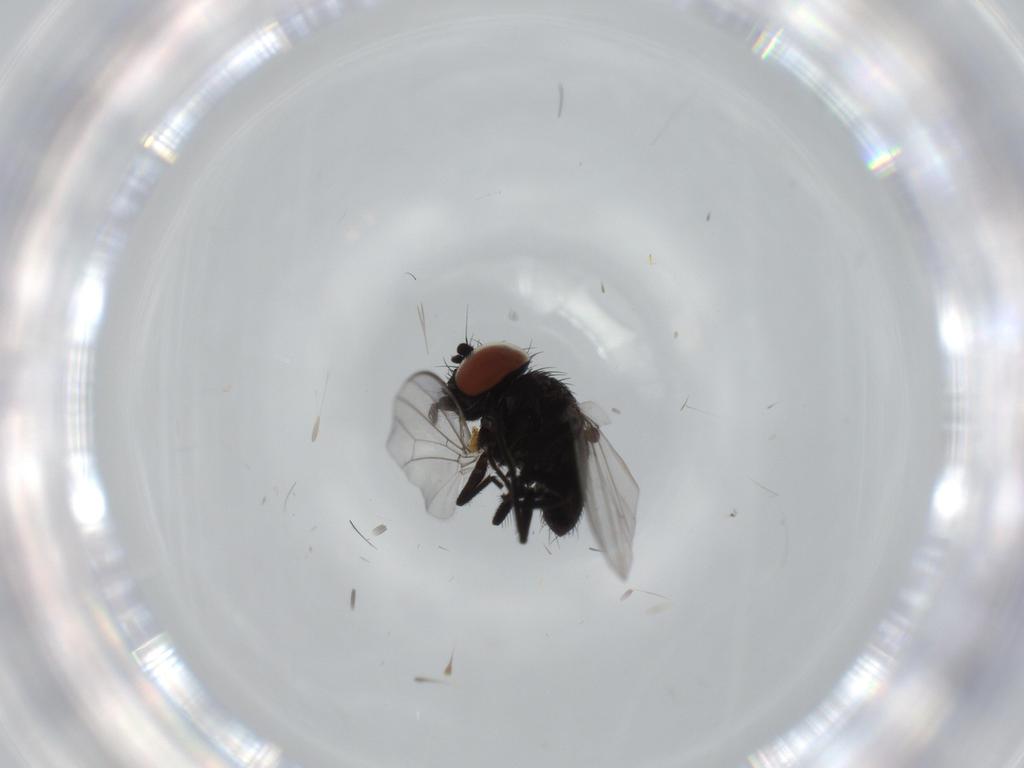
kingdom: Animalia
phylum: Arthropoda
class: Insecta
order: Diptera
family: Milichiidae
